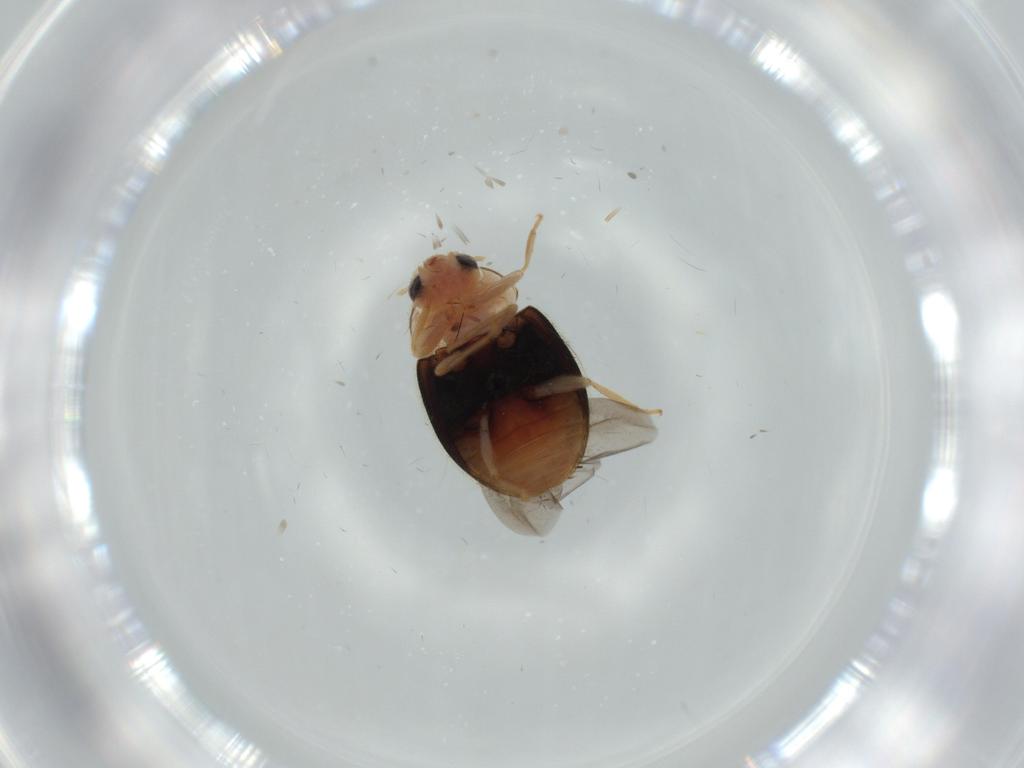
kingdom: Animalia
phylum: Arthropoda
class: Insecta
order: Coleoptera
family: Coccinellidae
